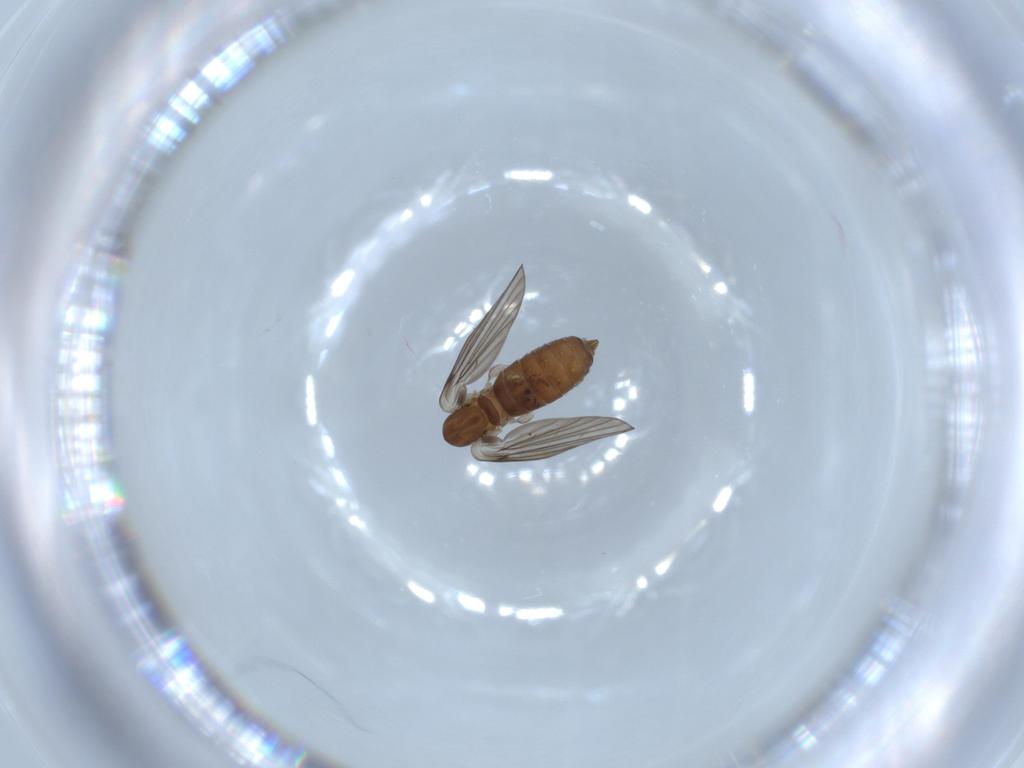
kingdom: Animalia
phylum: Arthropoda
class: Insecta
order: Diptera
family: Psychodidae
